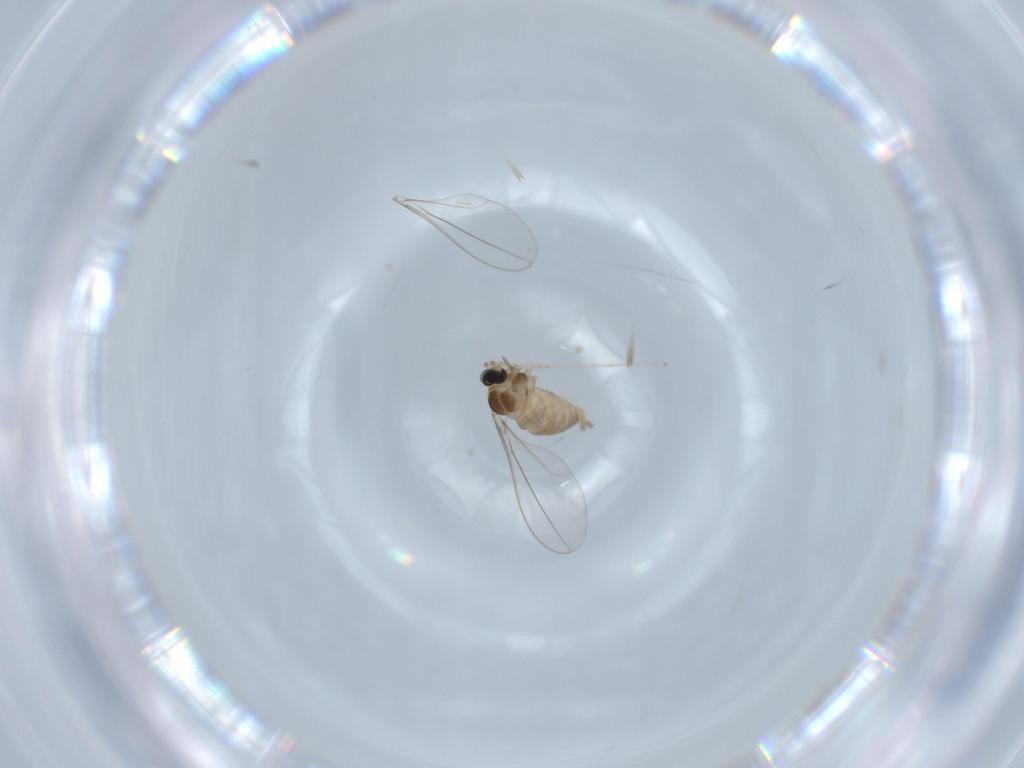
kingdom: Animalia
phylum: Arthropoda
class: Insecta
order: Diptera
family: Cecidomyiidae
